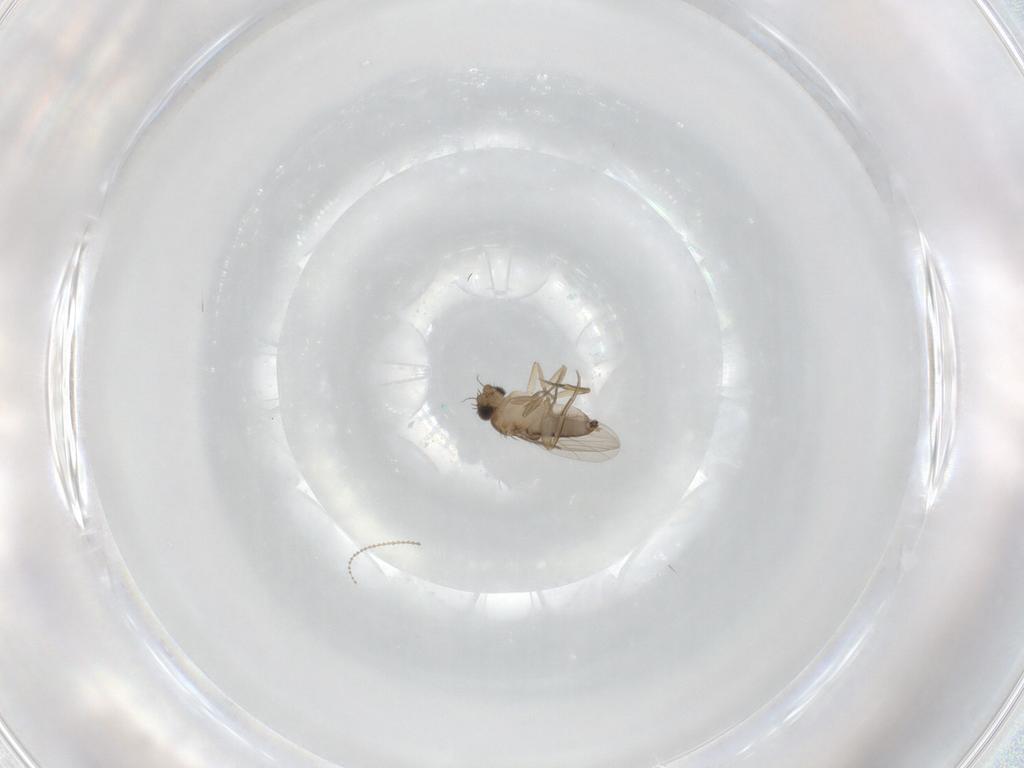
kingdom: Animalia
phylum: Arthropoda
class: Insecta
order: Diptera
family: Phoridae
